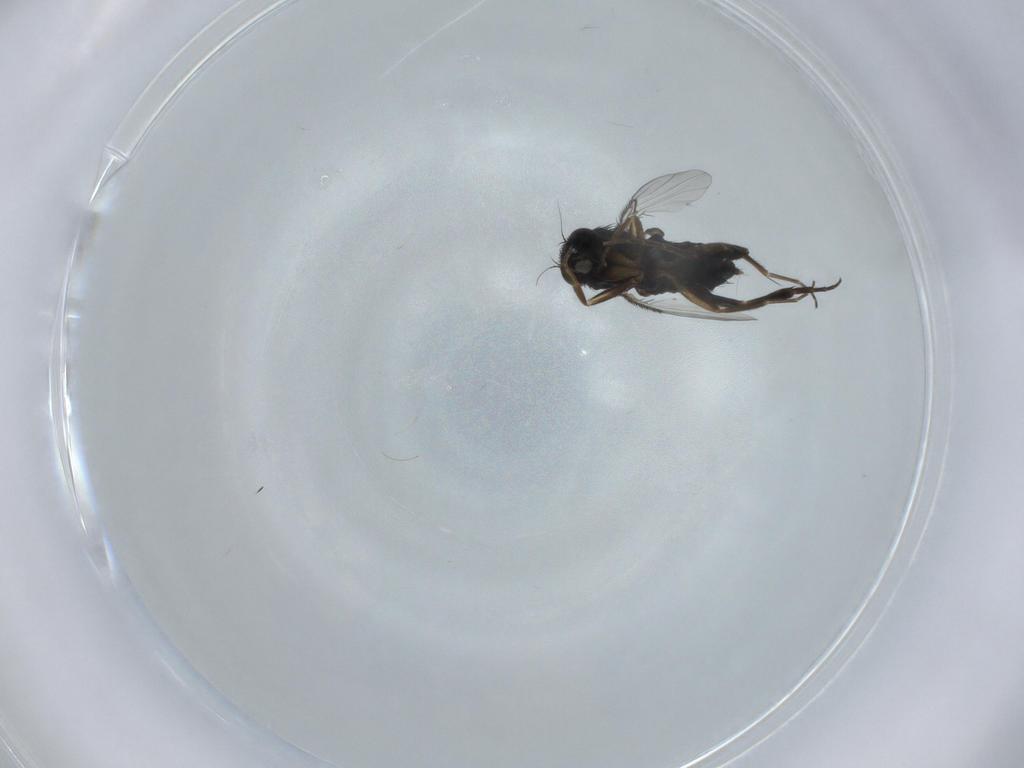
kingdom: Animalia
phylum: Arthropoda
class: Insecta
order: Diptera
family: Phoridae
